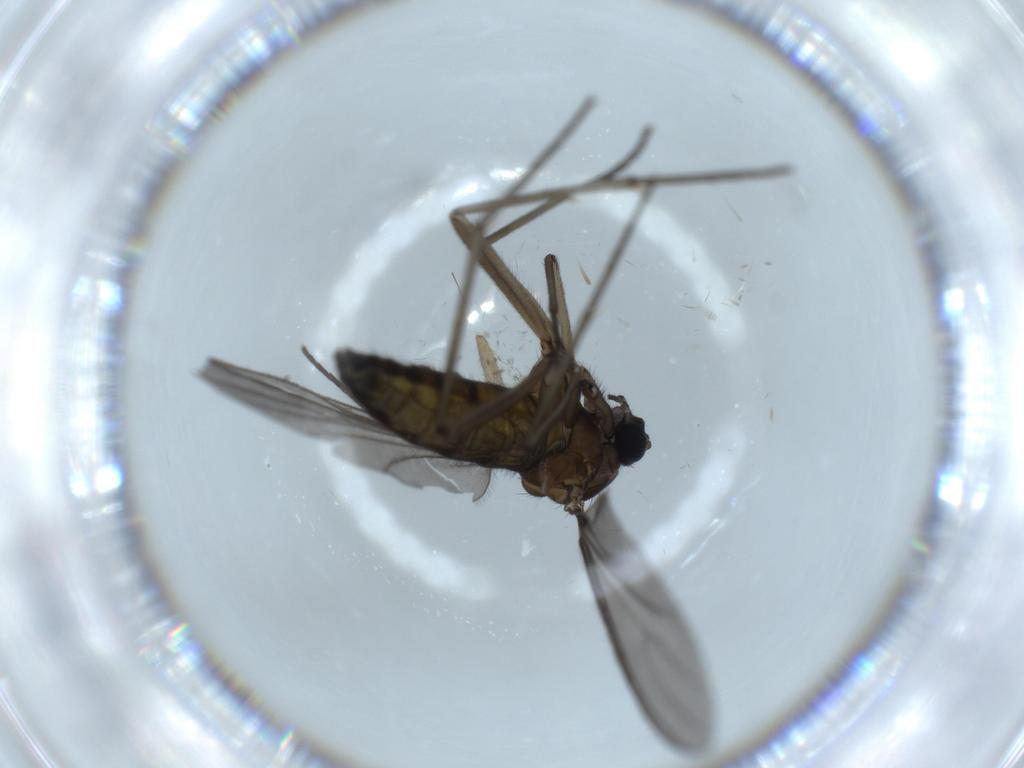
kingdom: Animalia
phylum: Arthropoda
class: Insecta
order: Diptera
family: Sciaridae
